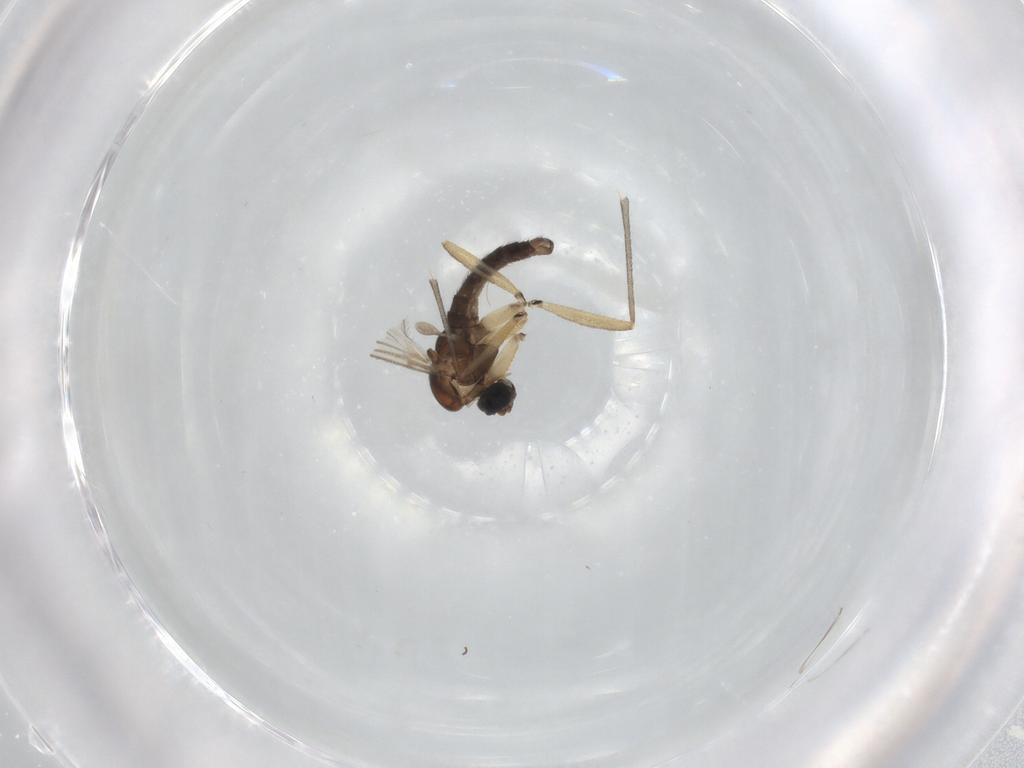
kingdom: Animalia
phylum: Arthropoda
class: Insecta
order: Diptera
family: Sciaridae
